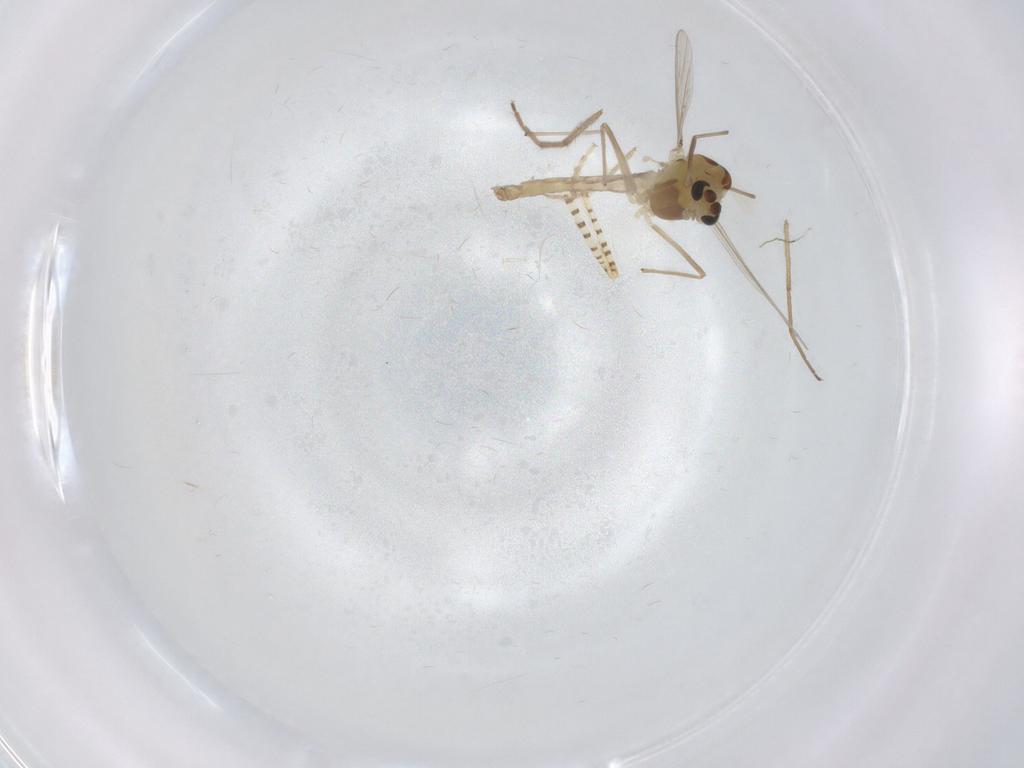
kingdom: Animalia
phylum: Arthropoda
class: Insecta
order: Diptera
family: Chaoboridae
